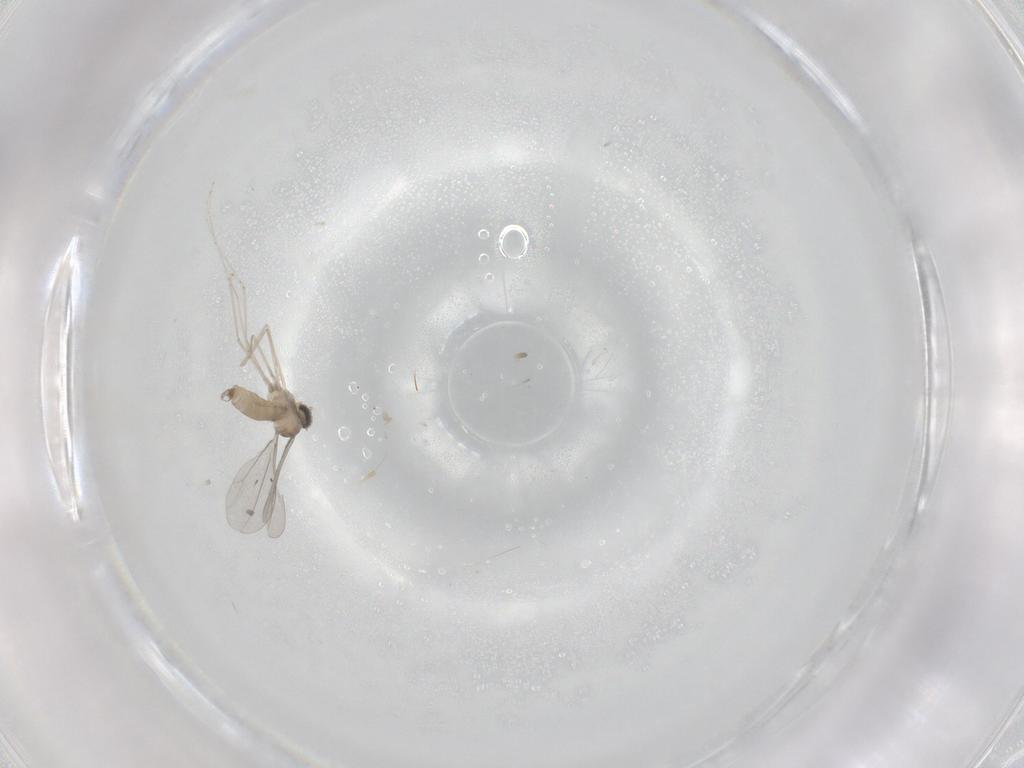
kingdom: Animalia
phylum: Arthropoda
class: Insecta
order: Diptera
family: Cecidomyiidae
